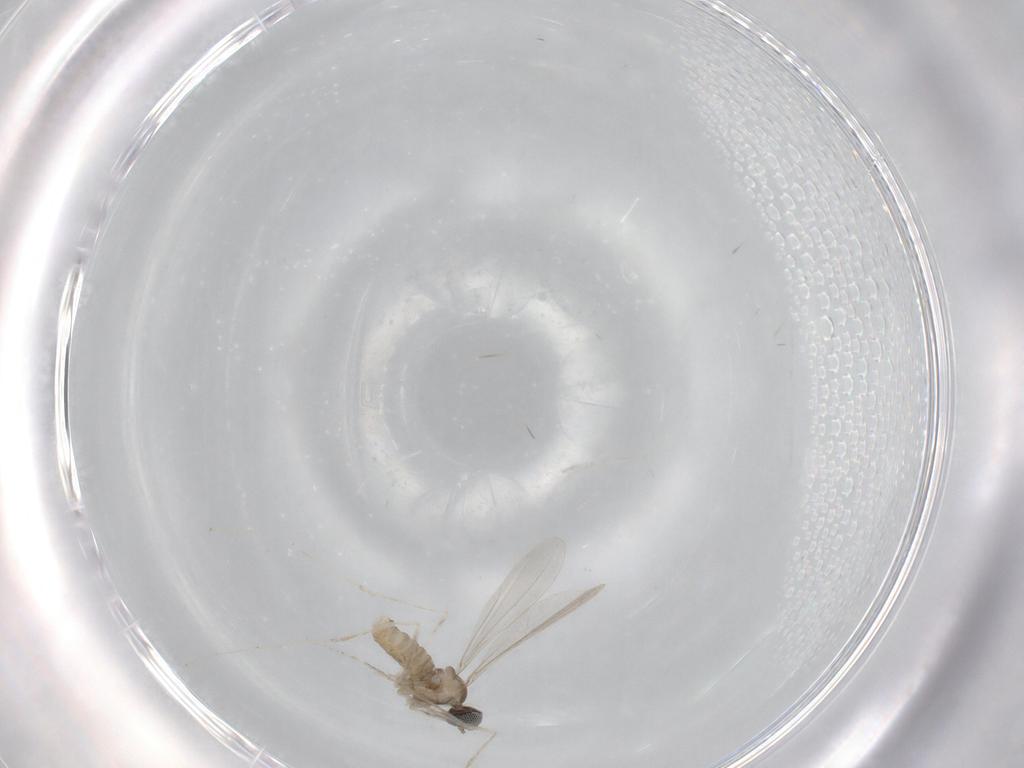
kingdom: Animalia
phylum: Arthropoda
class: Insecta
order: Diptera
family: Cecidomyiidae
